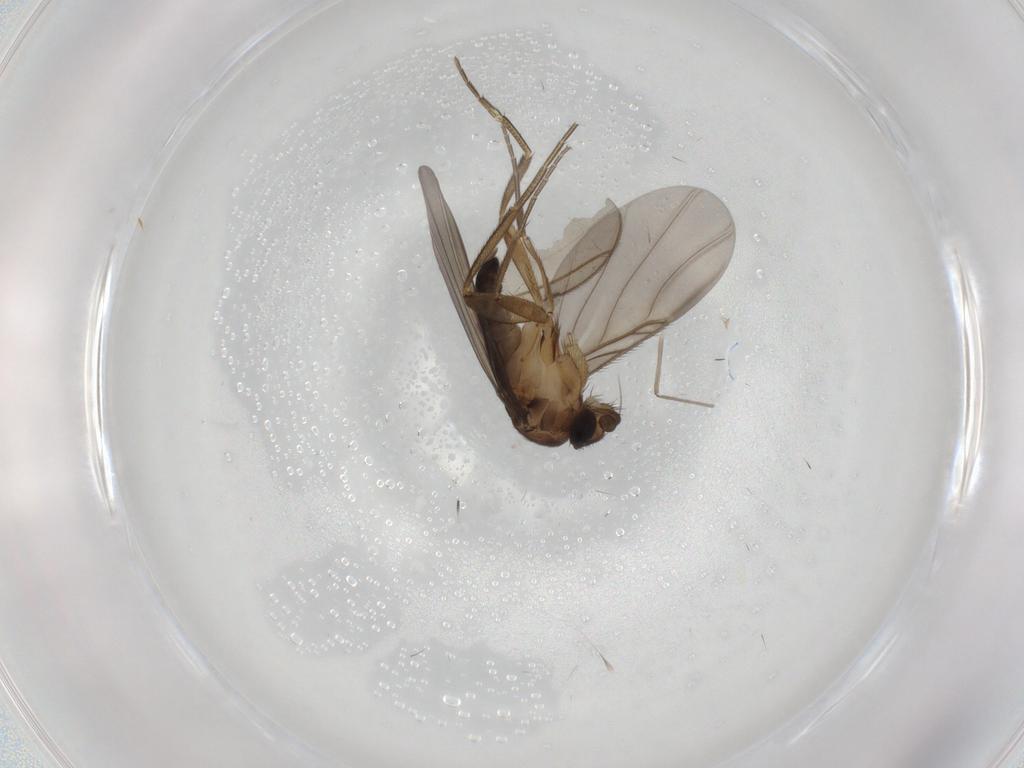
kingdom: Animalia
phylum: Arthropoda
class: Insecta
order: Diptera
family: Phoridae
